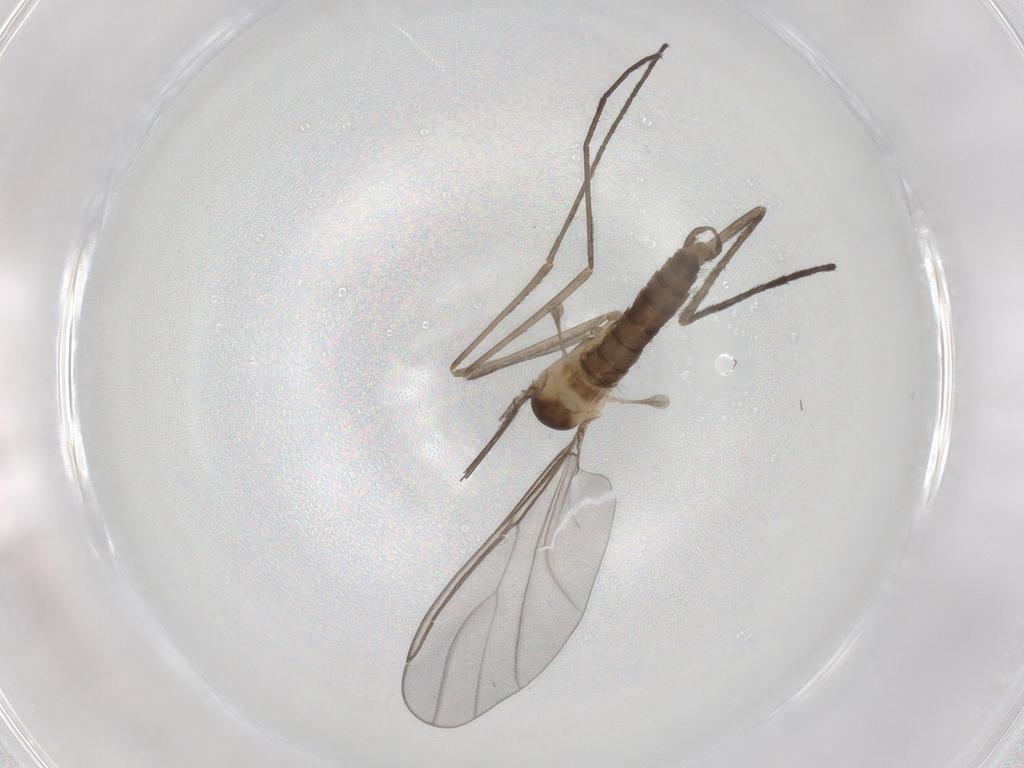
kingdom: Animalia
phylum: Arthropoda
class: Insecta
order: Diptera
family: Cecidomyiidae
